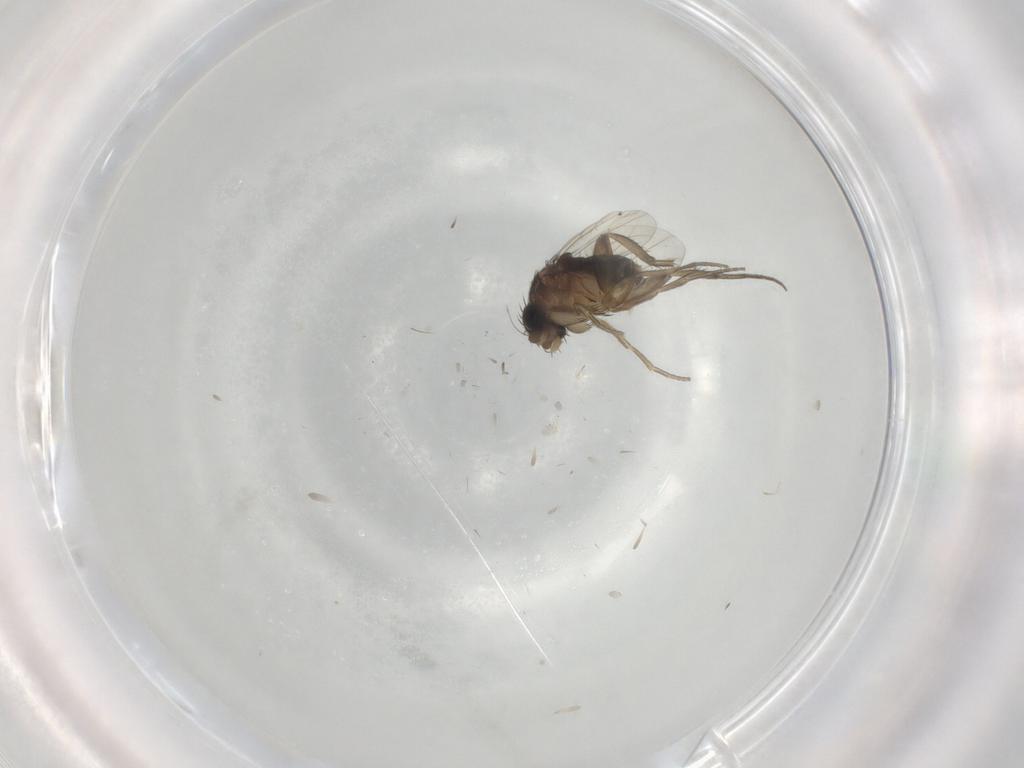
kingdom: Animalia
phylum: Arthropoda
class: Insecta
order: Diptera
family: Phoridae
